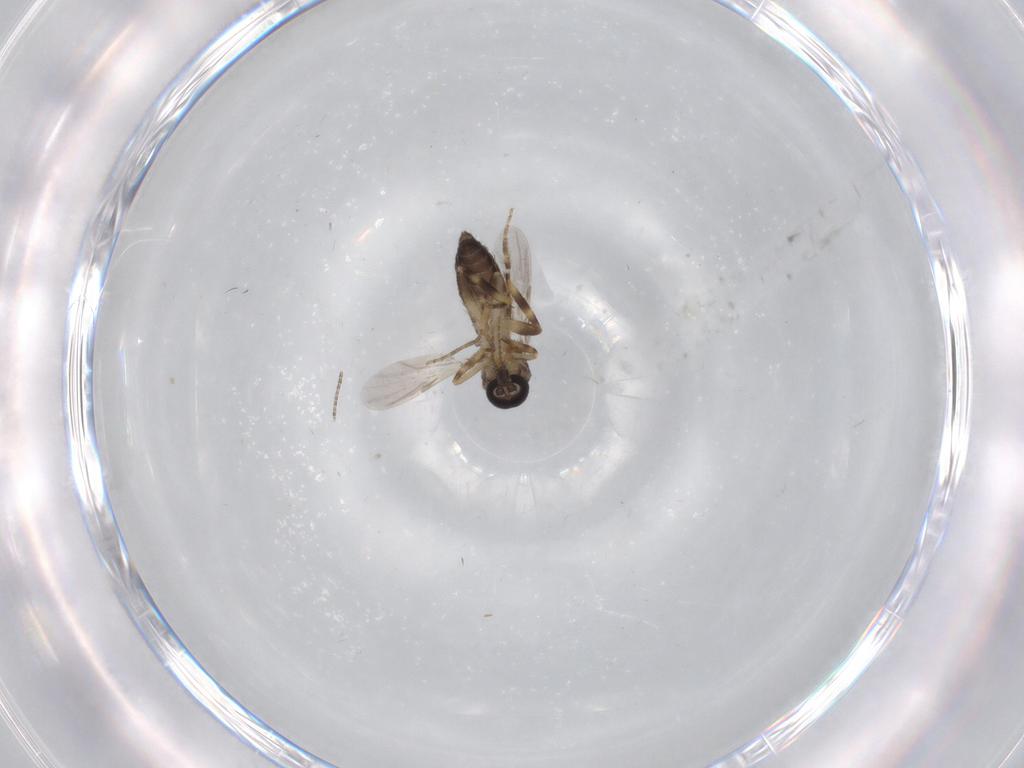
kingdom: Animalia
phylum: Arthropoda
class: Insecta
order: Diptera
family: Ceratopogonidae
